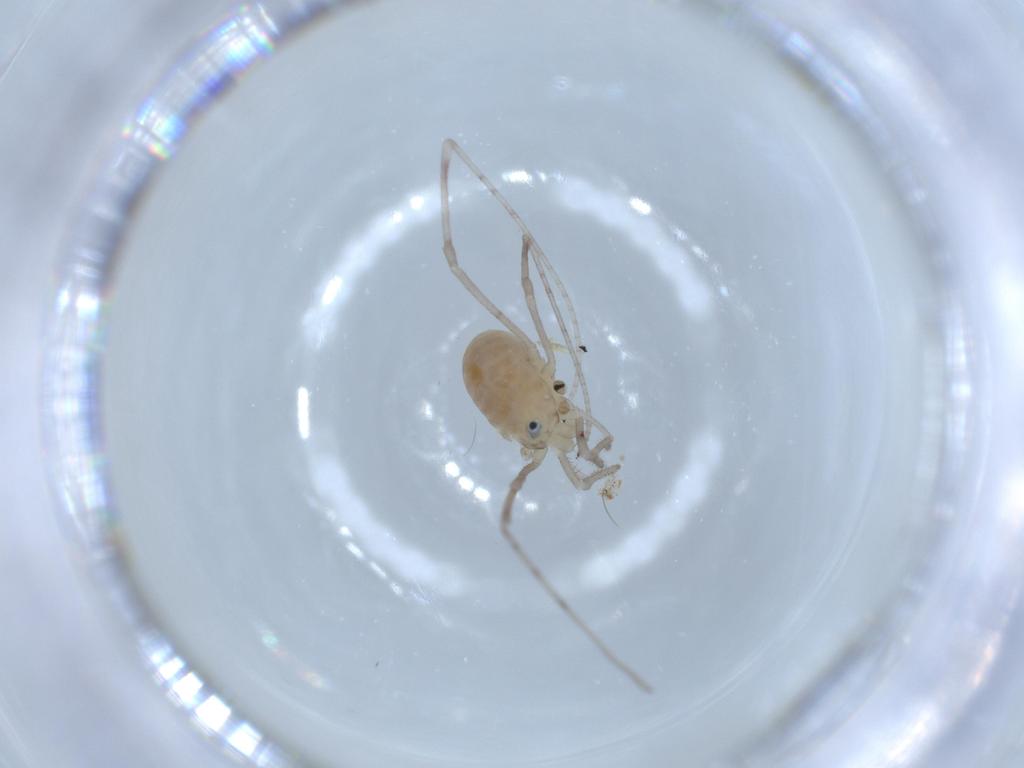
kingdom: Animalia
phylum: Arthropoda
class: Arachnida
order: Opiliones
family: Sclerosomatidae
